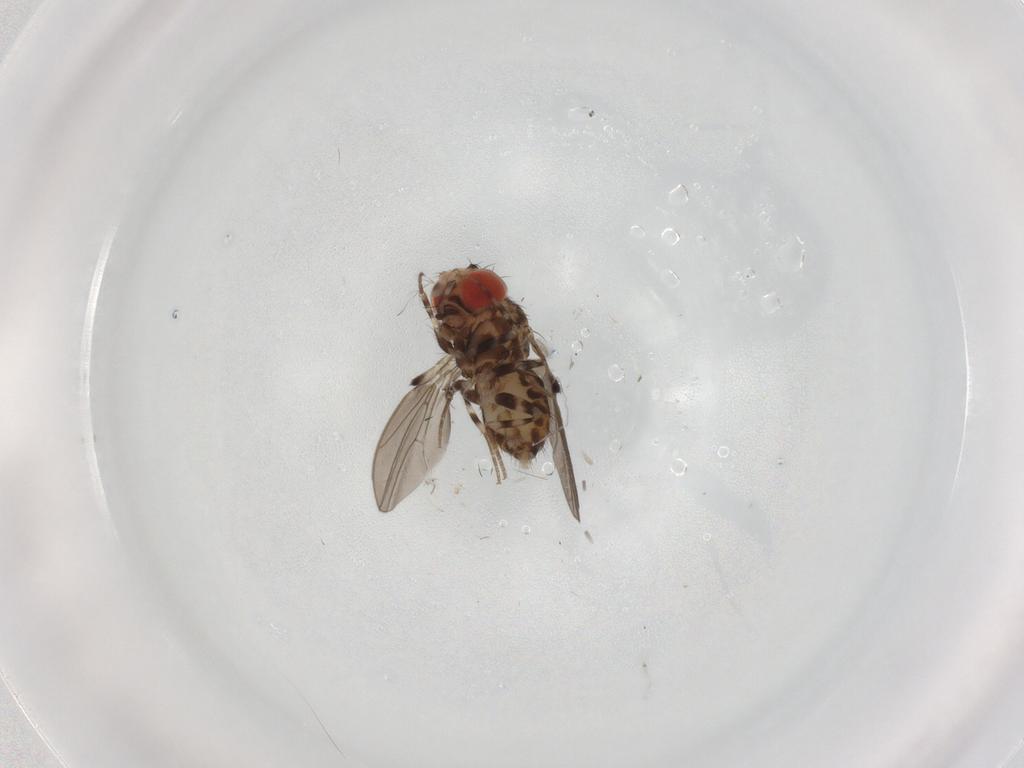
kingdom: Animalia
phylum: Arthropoda
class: Insecta
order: Diptera
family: Drosophilidae
